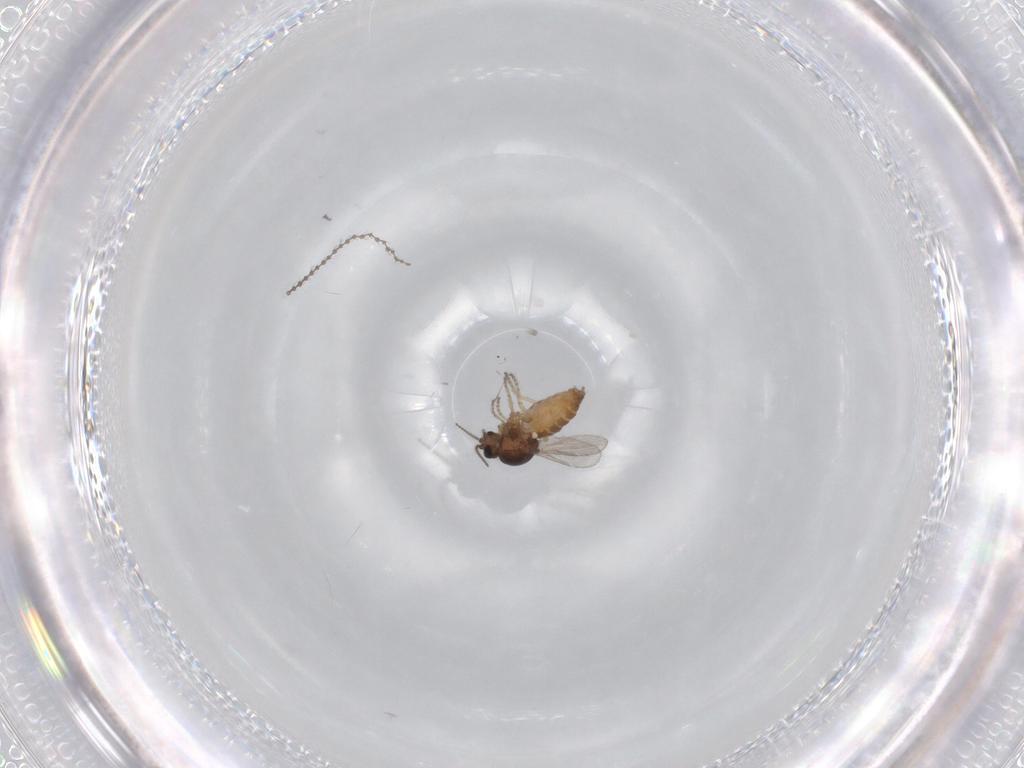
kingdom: Animalia
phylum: Arthropoda
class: Insecta
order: Diptera
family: Ceratopogonidae
